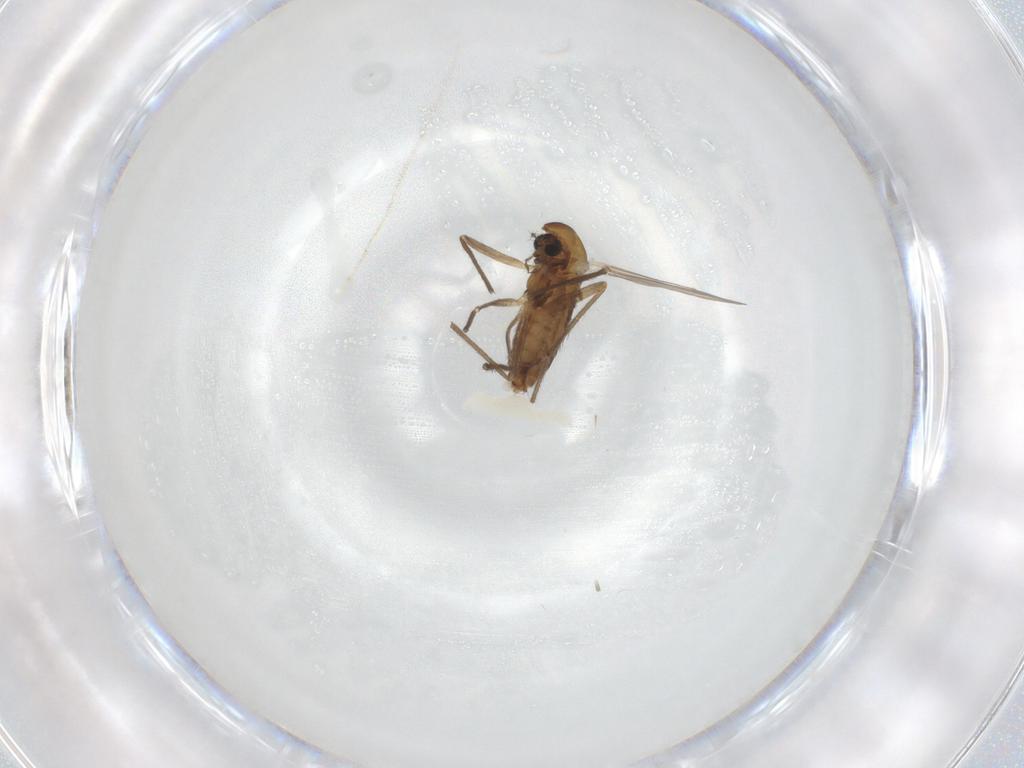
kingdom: Animalia
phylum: Arthropoda
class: Insecta
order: Diptera
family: Chironomidae
